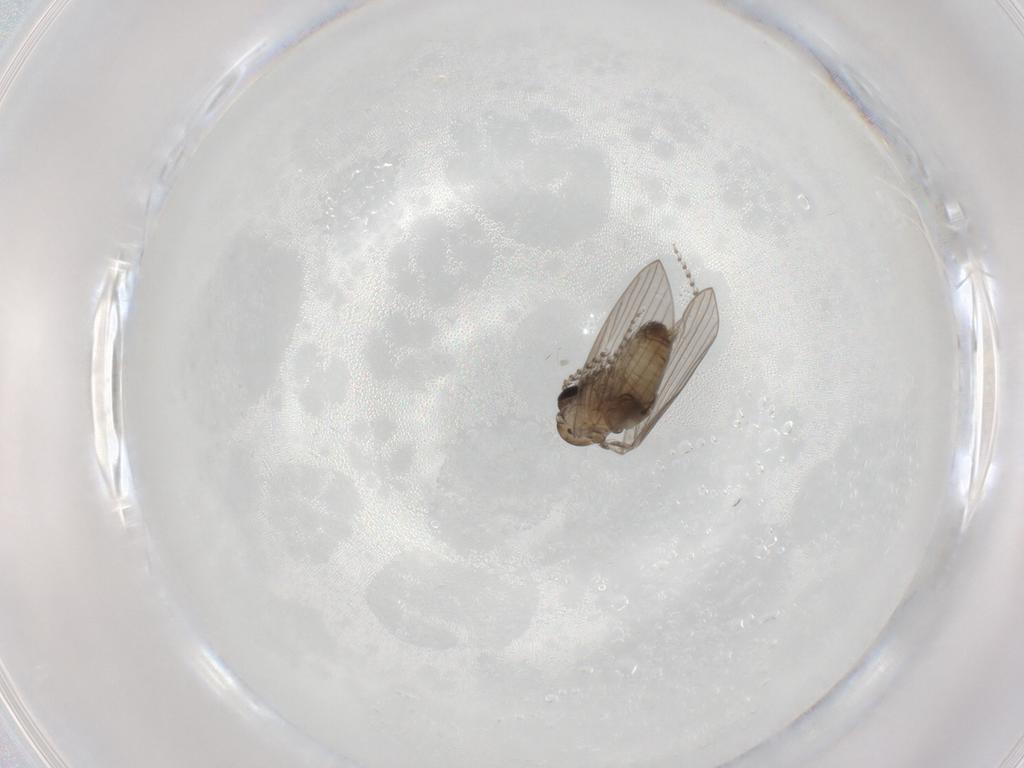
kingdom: Animalia
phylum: Arthropoda
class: Insecta
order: Diptera
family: Psychodidae
